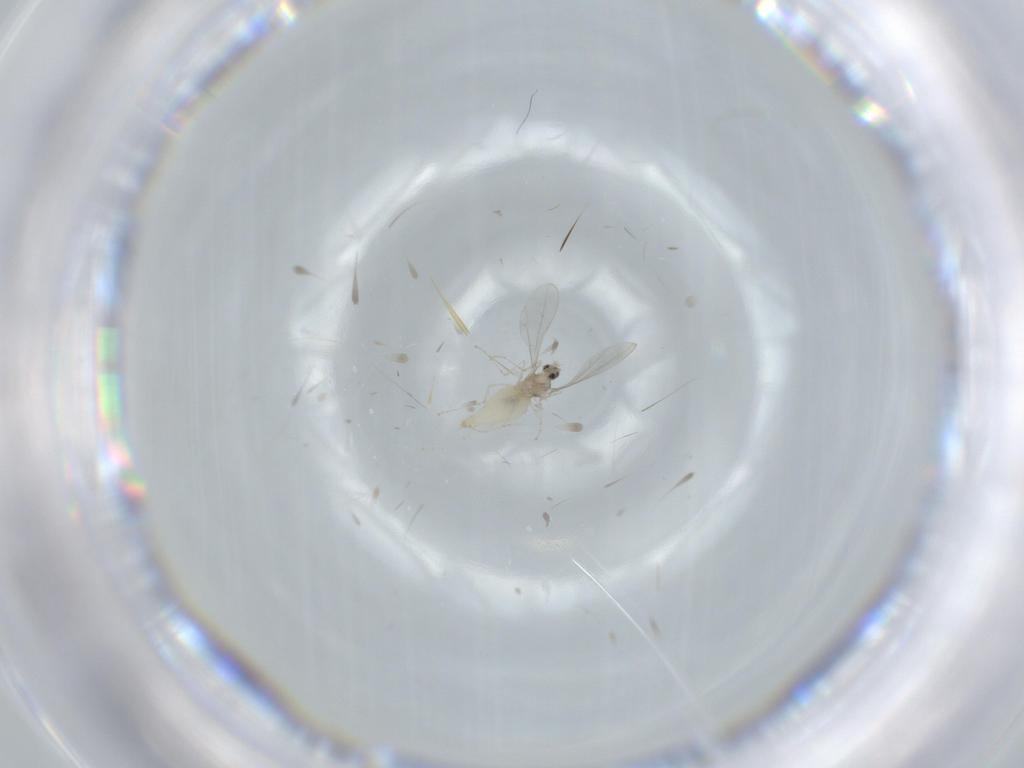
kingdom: Animalia
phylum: Arthropoda
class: Insecta
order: Diptera
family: Cecidomyiidae
